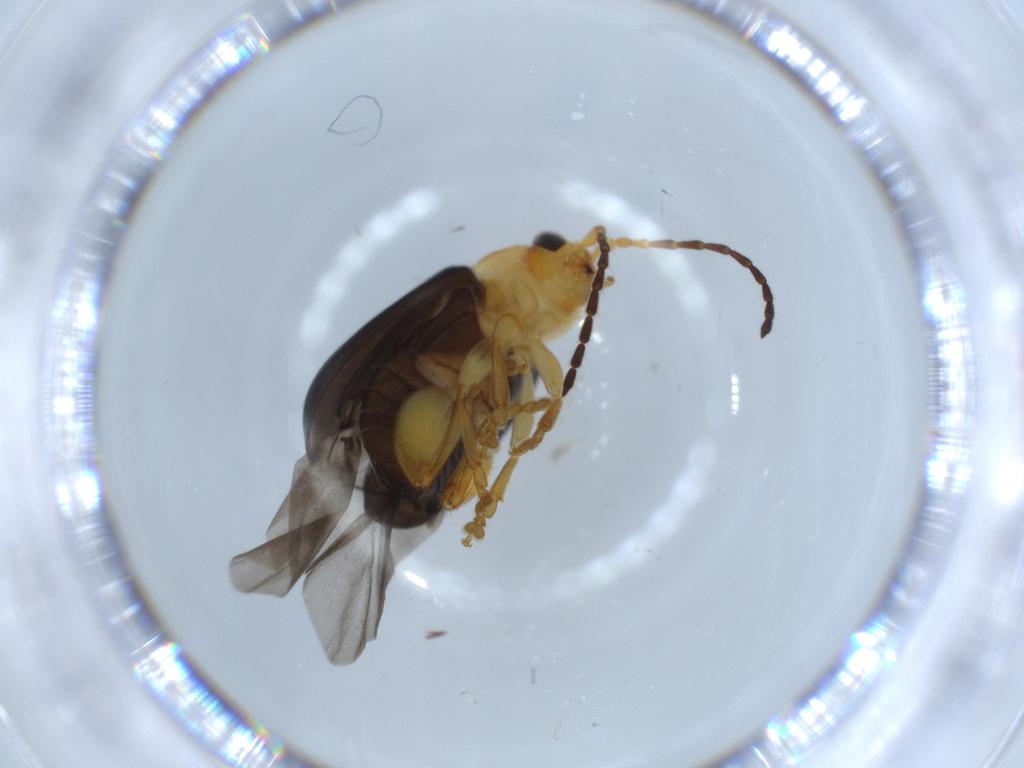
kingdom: Animalia
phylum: Arthropoda
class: Insecta
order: Coleoptera
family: Chrysomelidae
